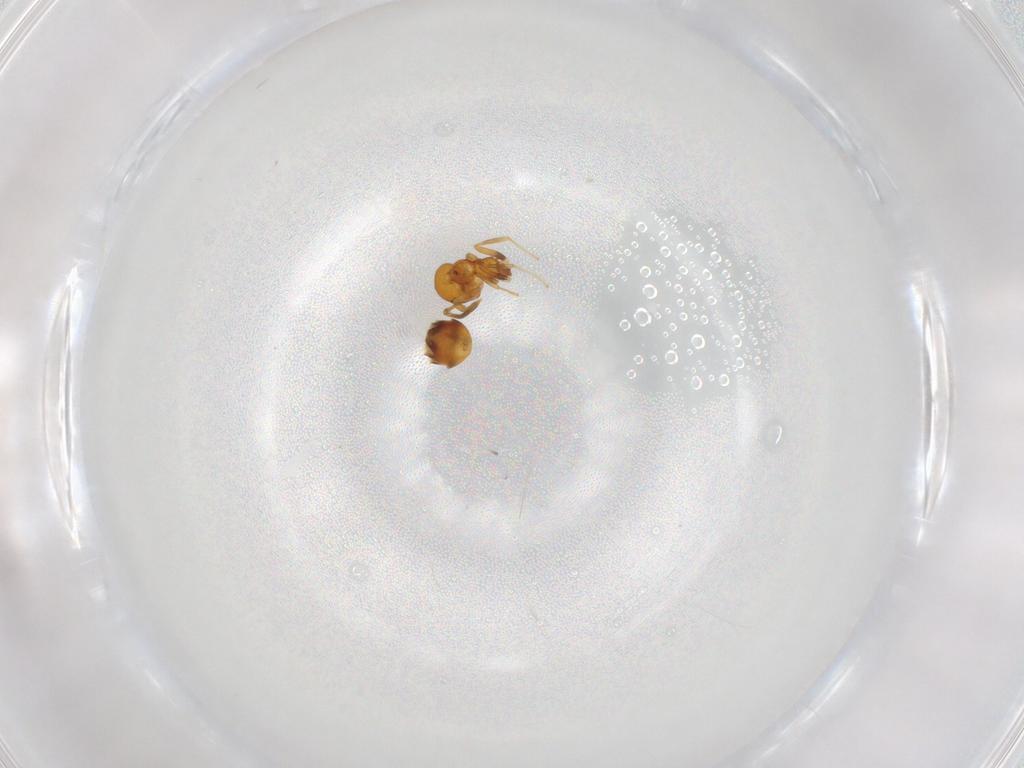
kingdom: Animalia
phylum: Arthropoda
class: Insecta
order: Hymenoptera
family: Formicidae
